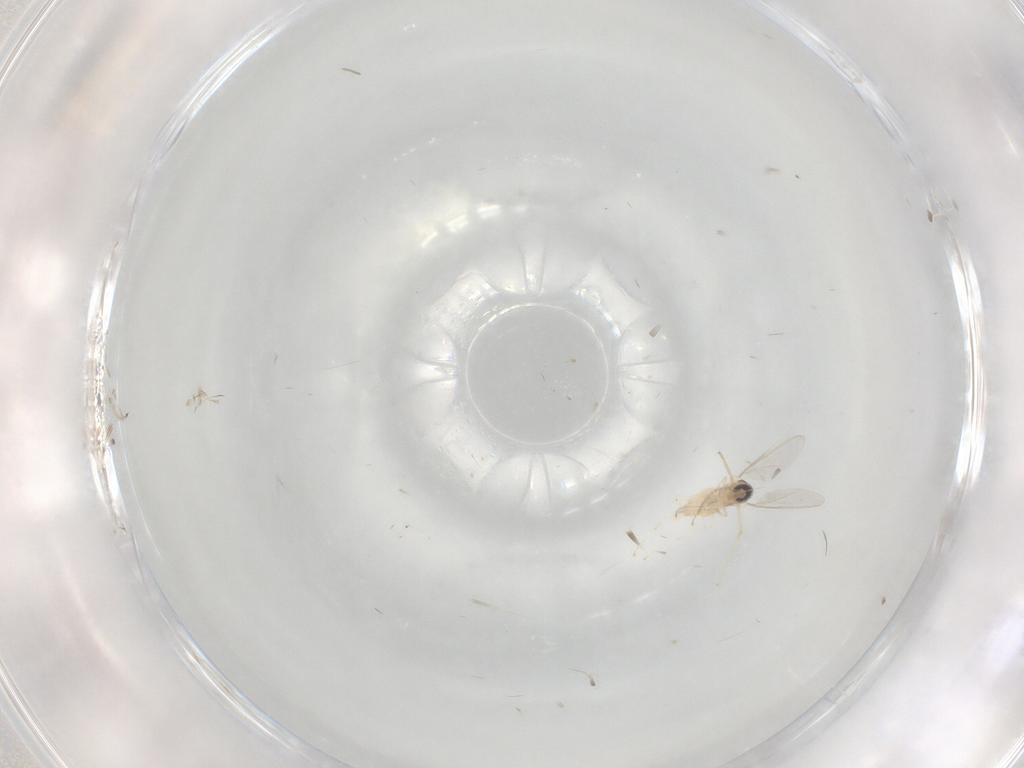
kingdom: Animalia
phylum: Arthropoda
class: Insecta
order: Diptera
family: Cecidomyiidae
